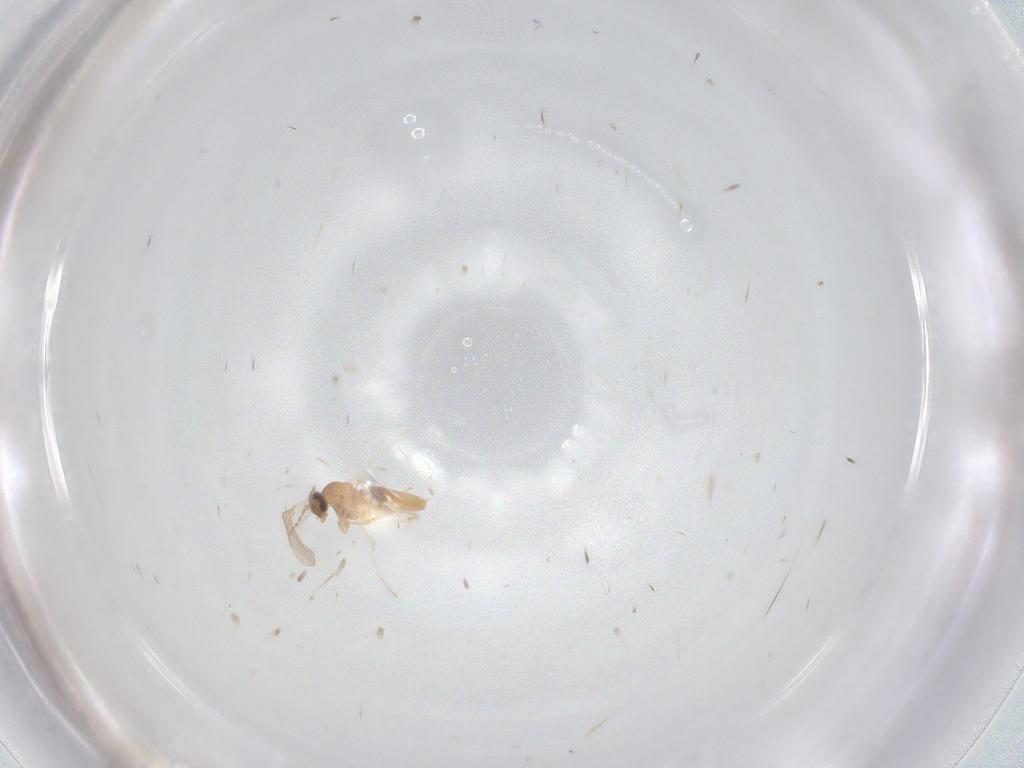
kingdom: Animalia
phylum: Arthropoda
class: Insecta
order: Diptera
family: Cecidomyiidae
